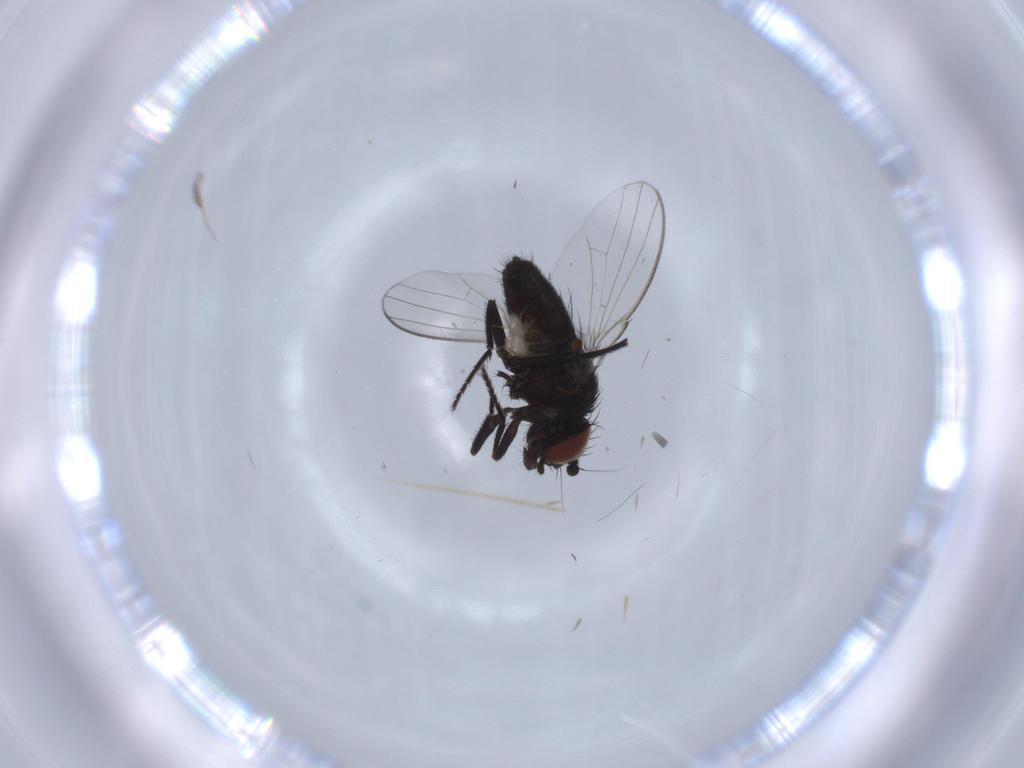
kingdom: Animalia
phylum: Arthropoda
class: Insecta
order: Diptera
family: Milichiidae
